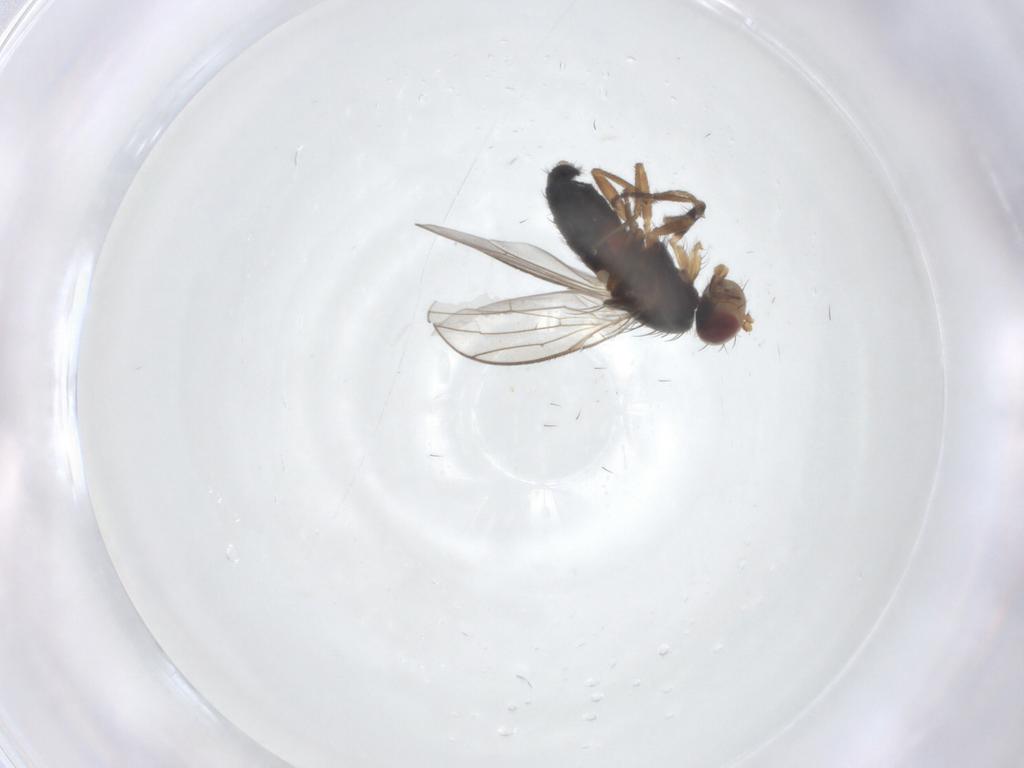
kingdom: Animalia
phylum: Arthropoda
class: Insecta
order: Diptera
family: Heleomyzidae
